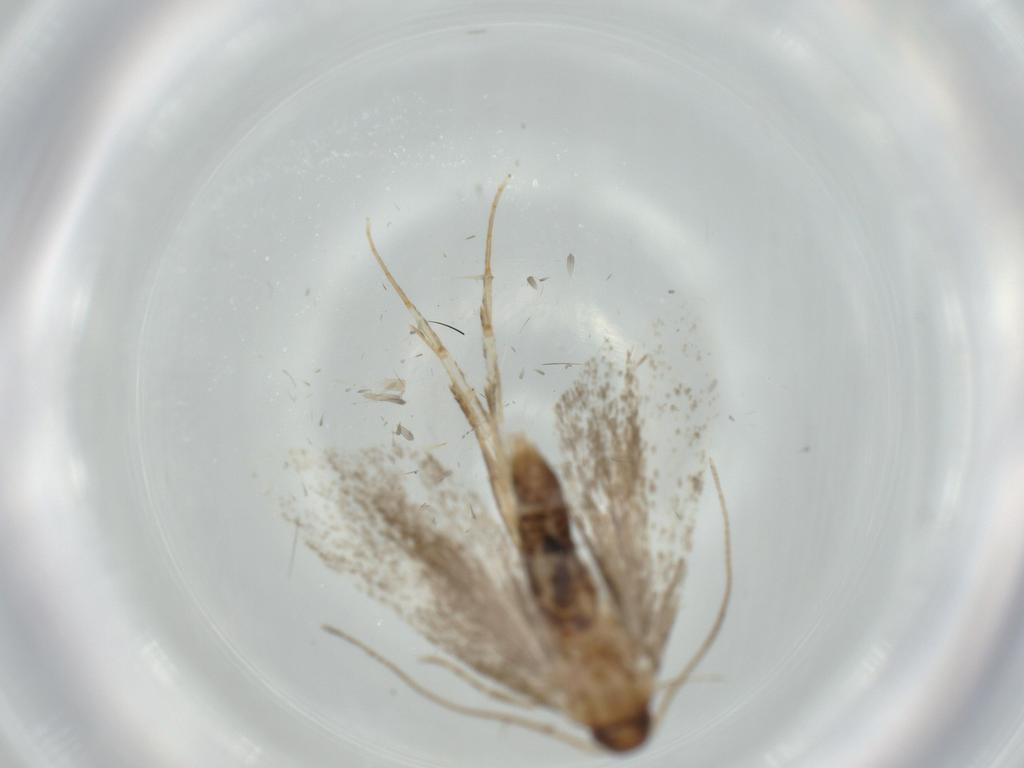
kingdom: Animalia
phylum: Arthropoda
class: Insecta
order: Lepidoptera
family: Gelechiidae
